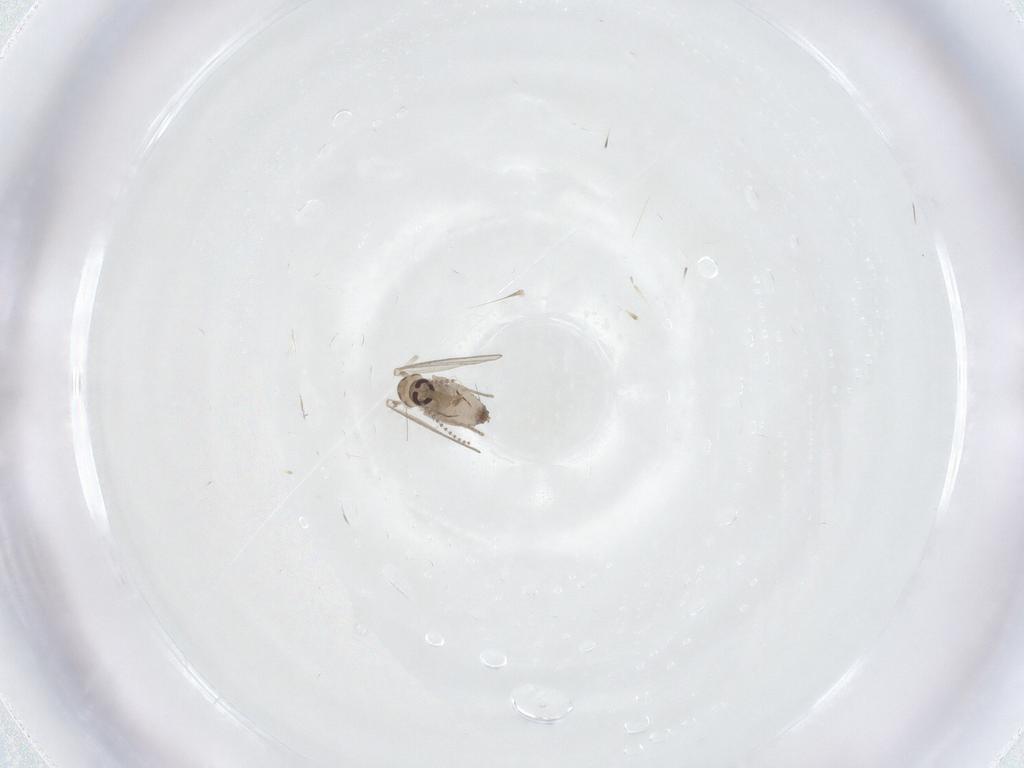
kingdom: Animalia
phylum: Arthropoda
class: Insecta
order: Diptera
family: Psychodidae
